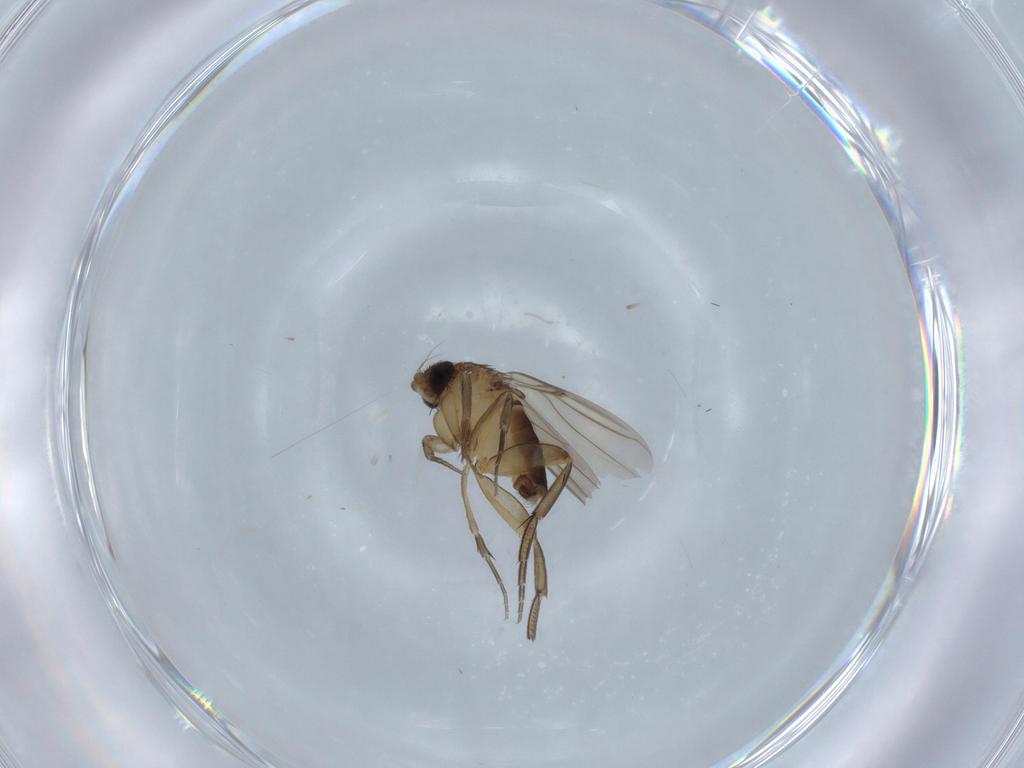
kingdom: Animalia
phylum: Arthropoda
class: Insecta
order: Diptera
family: Phoridae
